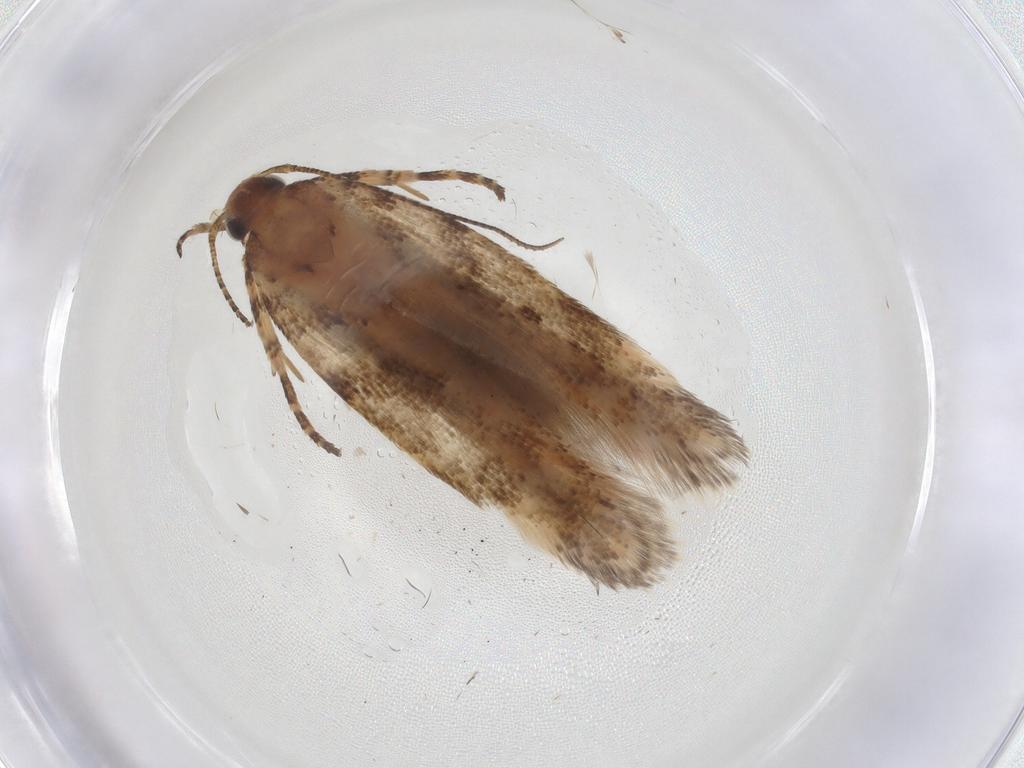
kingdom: Animalia
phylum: Arthropoda
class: Insecta
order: Lepidoptera
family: Gelechiidae
